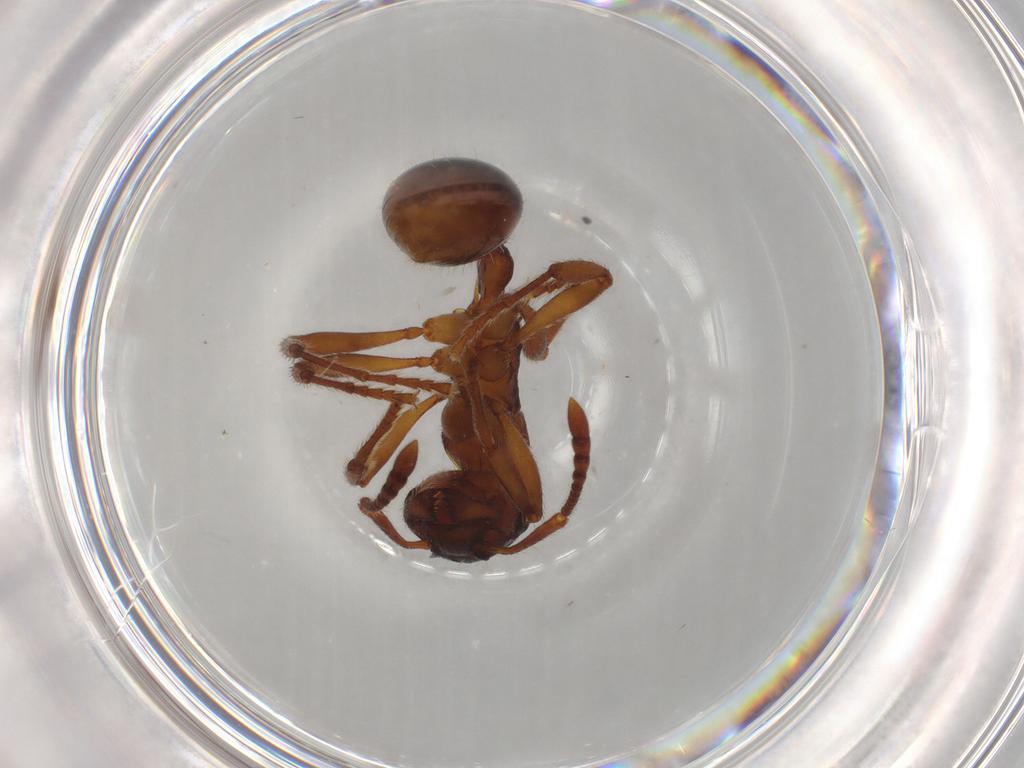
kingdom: Animalia
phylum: Arthropoda
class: Insecta
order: Hymenoptera
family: Formicidae
